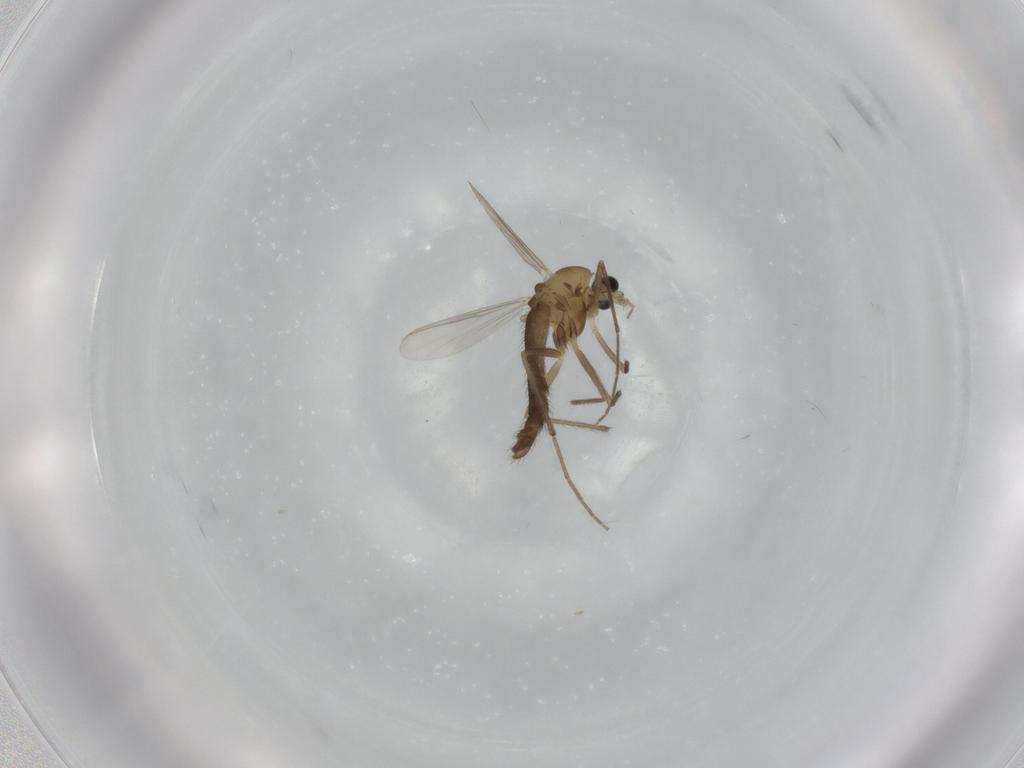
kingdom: Animalia
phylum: Arthropoda
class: Insecta
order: Diptera
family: Chironomidae
